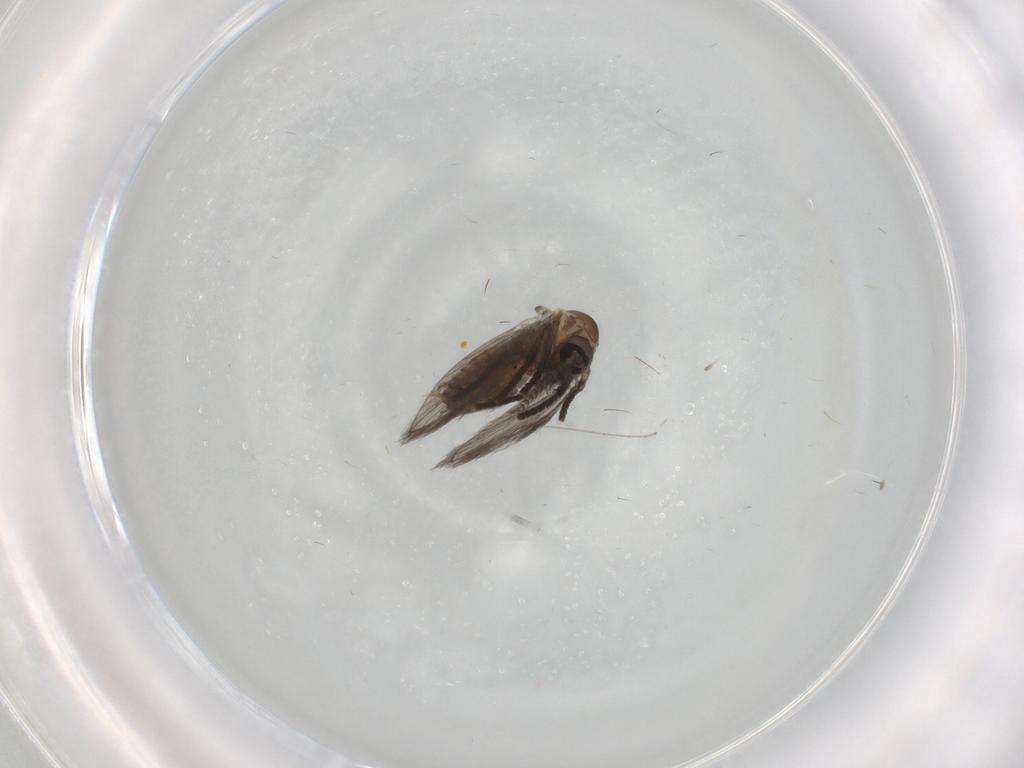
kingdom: Animalia
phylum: Arthropoda
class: Insecta
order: Diptera
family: Cecidomyiidae
